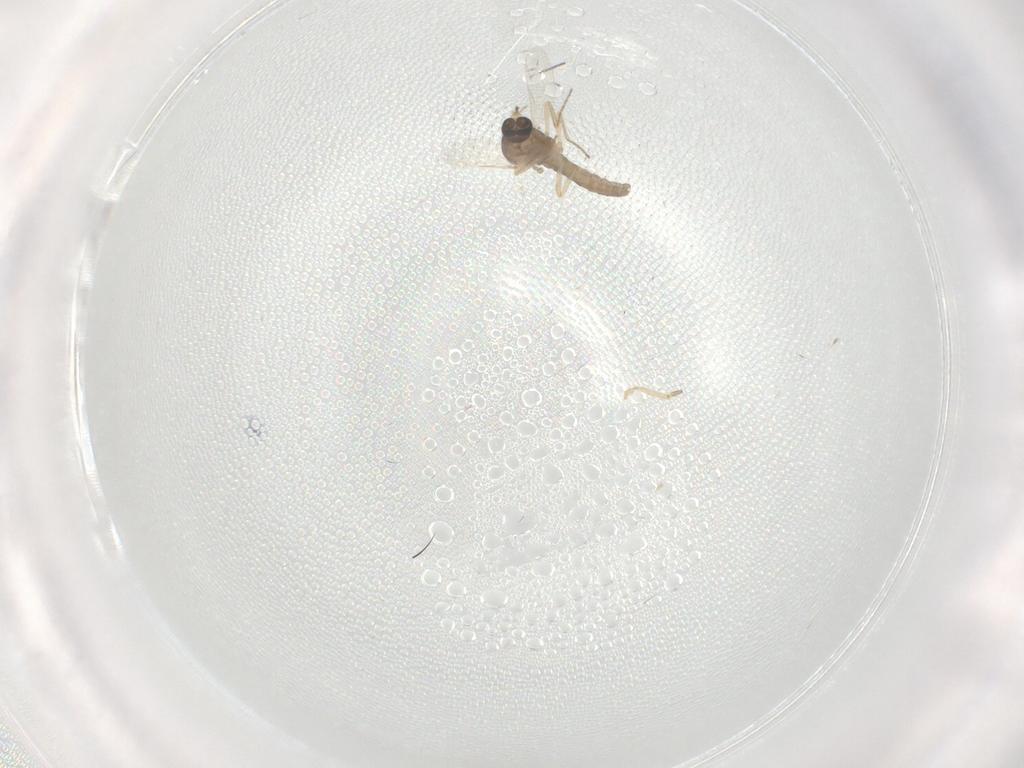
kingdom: Animalia
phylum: Arthropoda
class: Insecta
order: Diptera
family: Ceratopogonidae
